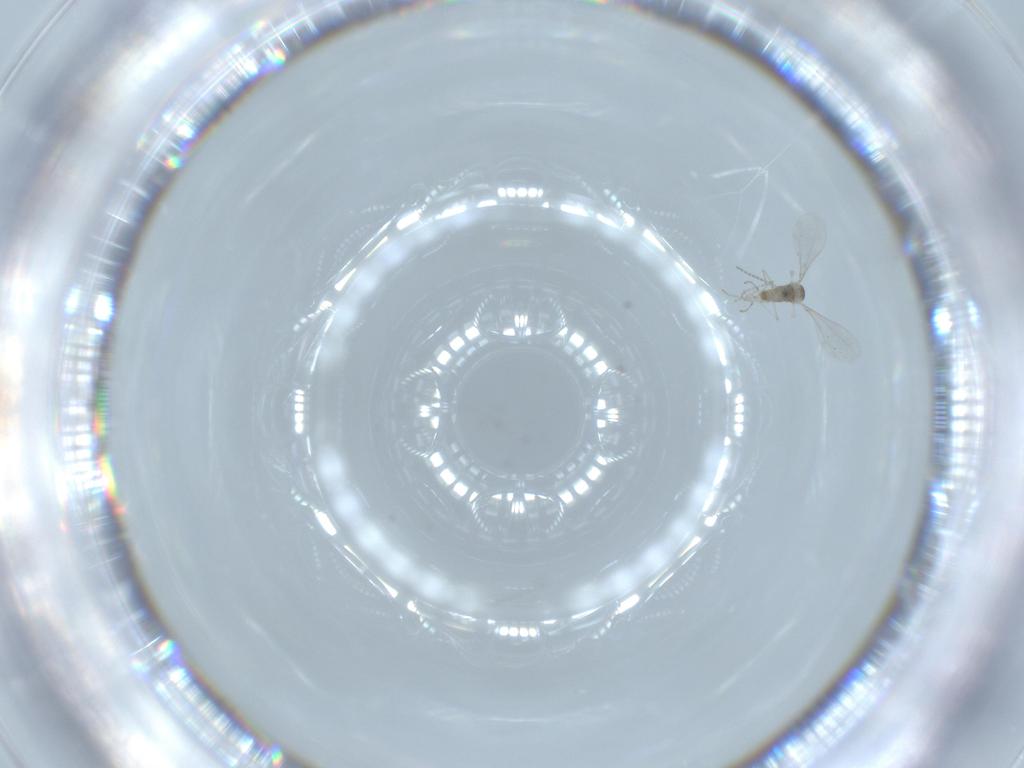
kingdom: Animalia
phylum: Arthropoda
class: Insecta
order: Diptera
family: Cecidomyiidae
